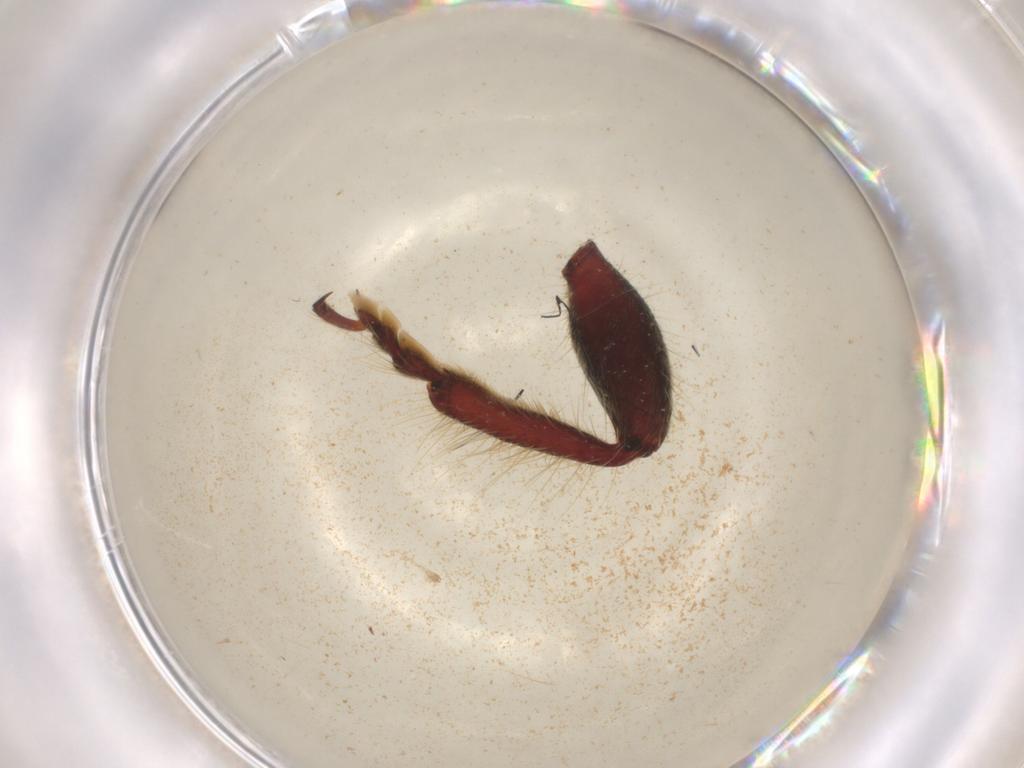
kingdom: Animalia
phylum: Arthropoda
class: Insecta
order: Coleoptera
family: Cerambycidae
